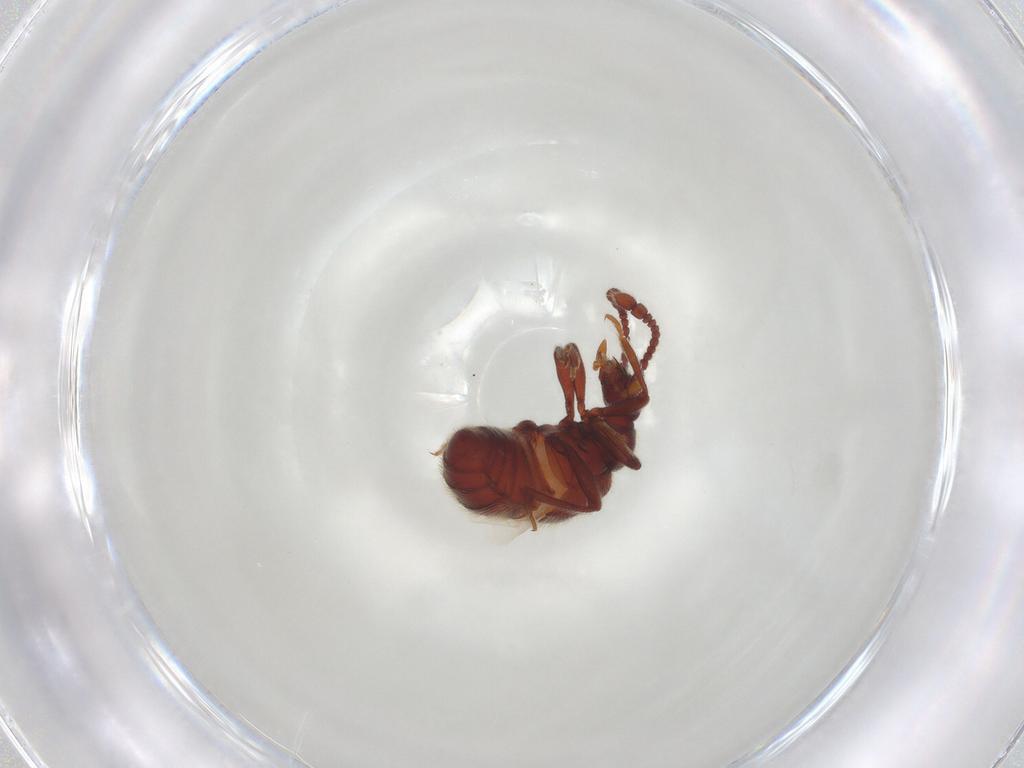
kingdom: Animalia
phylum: Arthropoda
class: Insecta
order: Coleoptera
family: Staphylinidae
